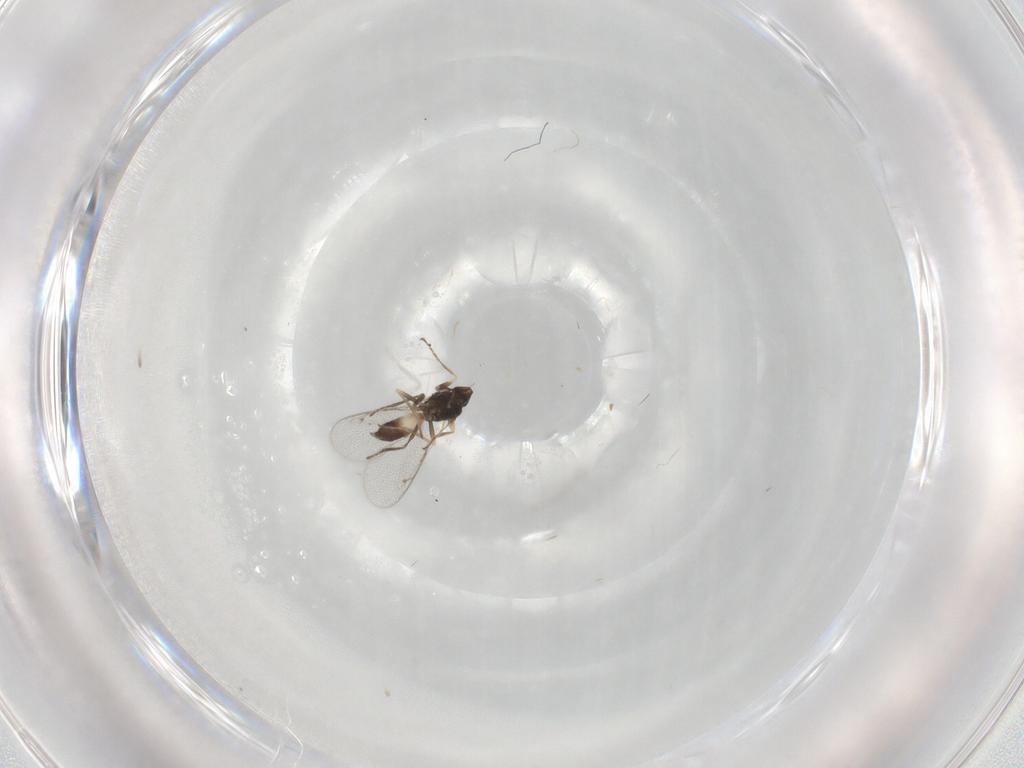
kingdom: Animalia
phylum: Arthropoda
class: Insecta
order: Hymenoptera
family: Eulophidae
